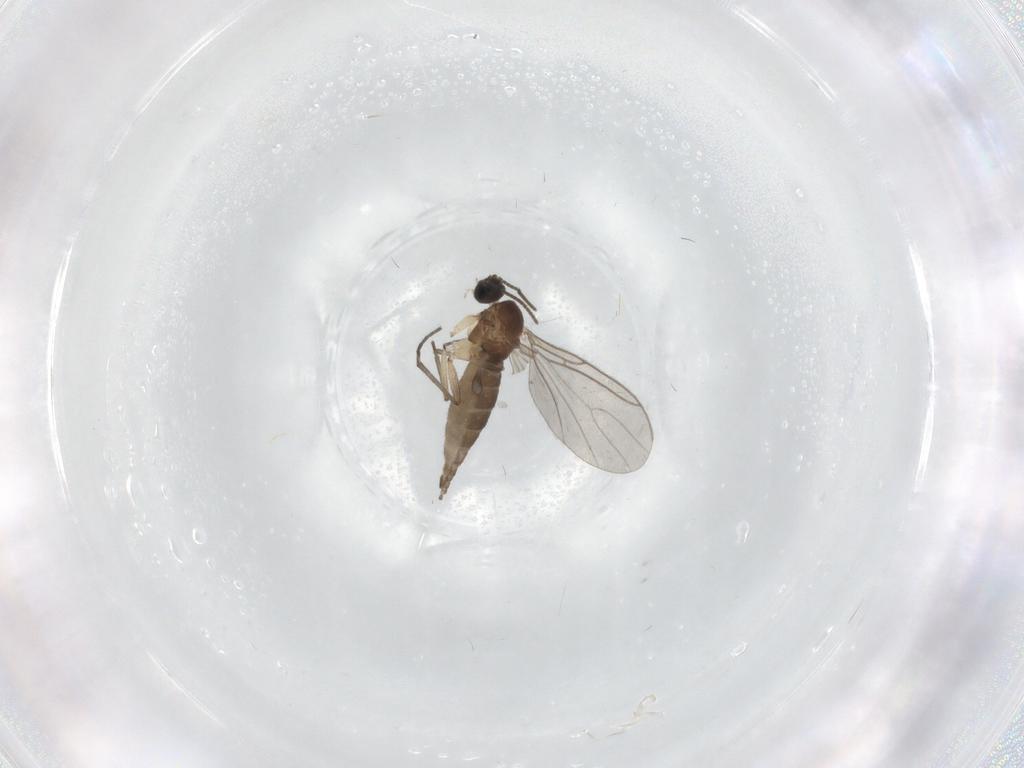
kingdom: Animalia
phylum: Arthropoda
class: Insecta
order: Diptera
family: Sciaridae
